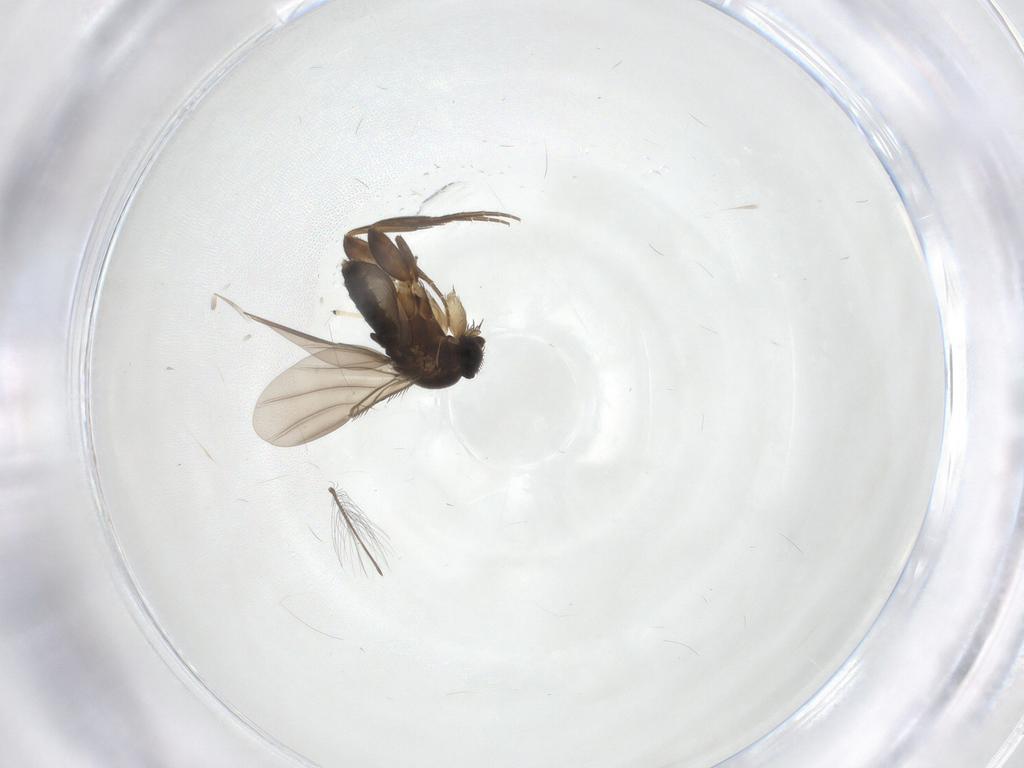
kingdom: Animalia
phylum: Arthropoda
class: Insecta
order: Diptera
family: Phoridae
